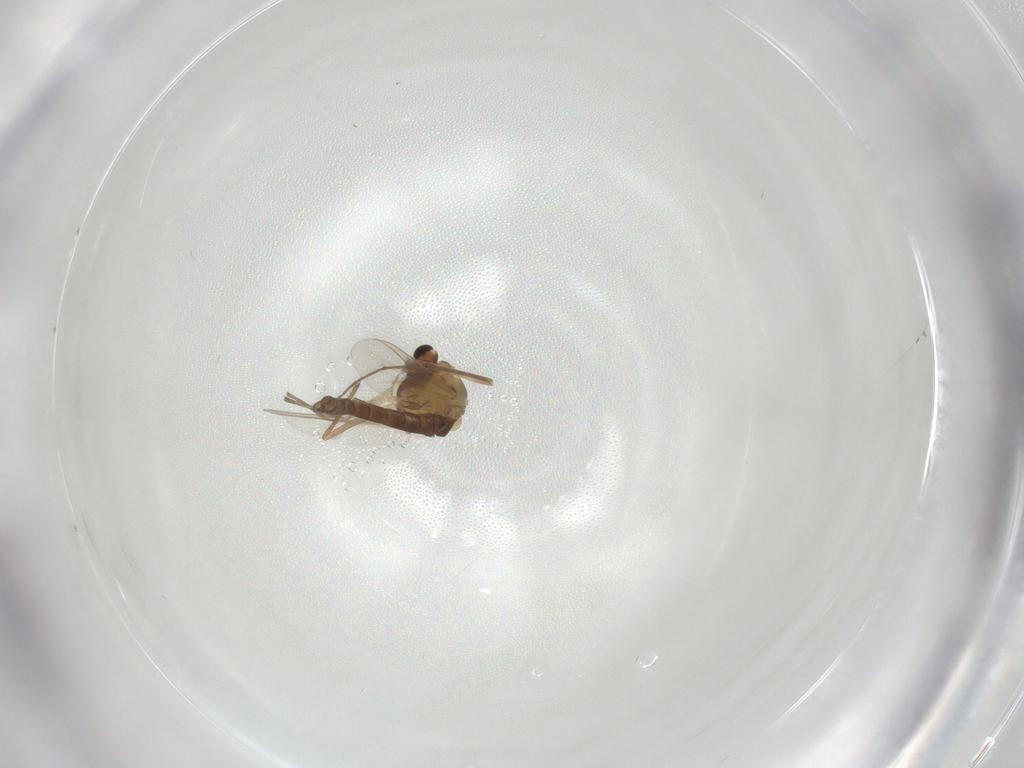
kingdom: Animalia
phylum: Arthropoda
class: Insecta
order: Diptera
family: Chironomidae
